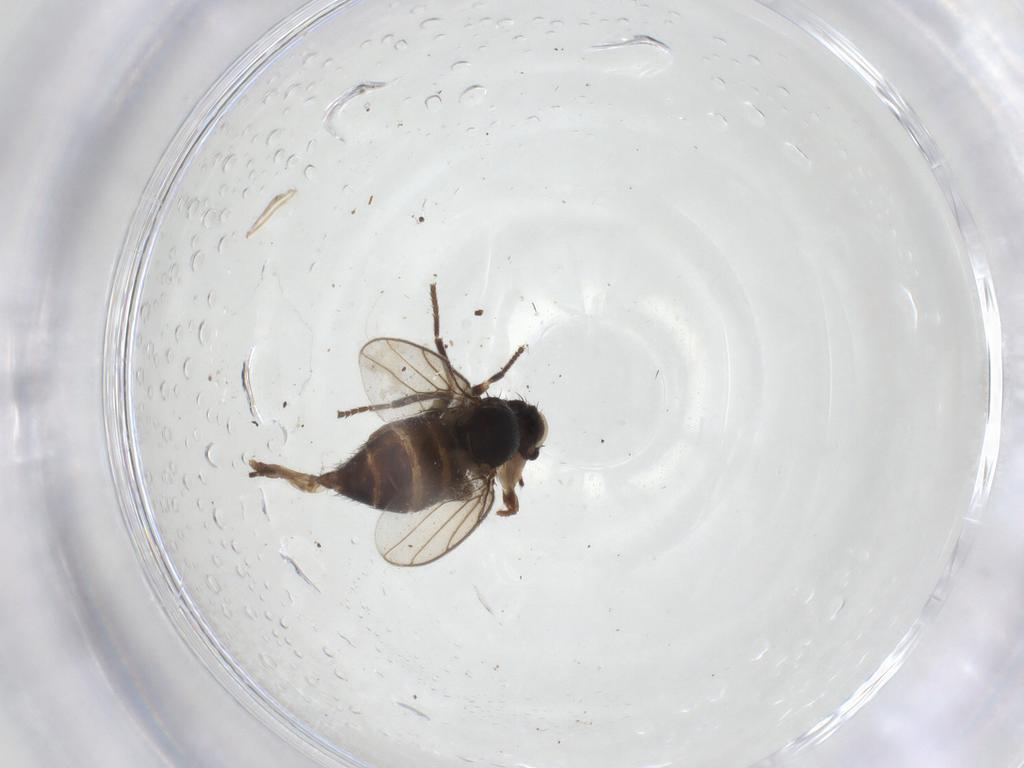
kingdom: Animalia
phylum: Arthropoda
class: Insecta
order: Diptera
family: Chloropidae
